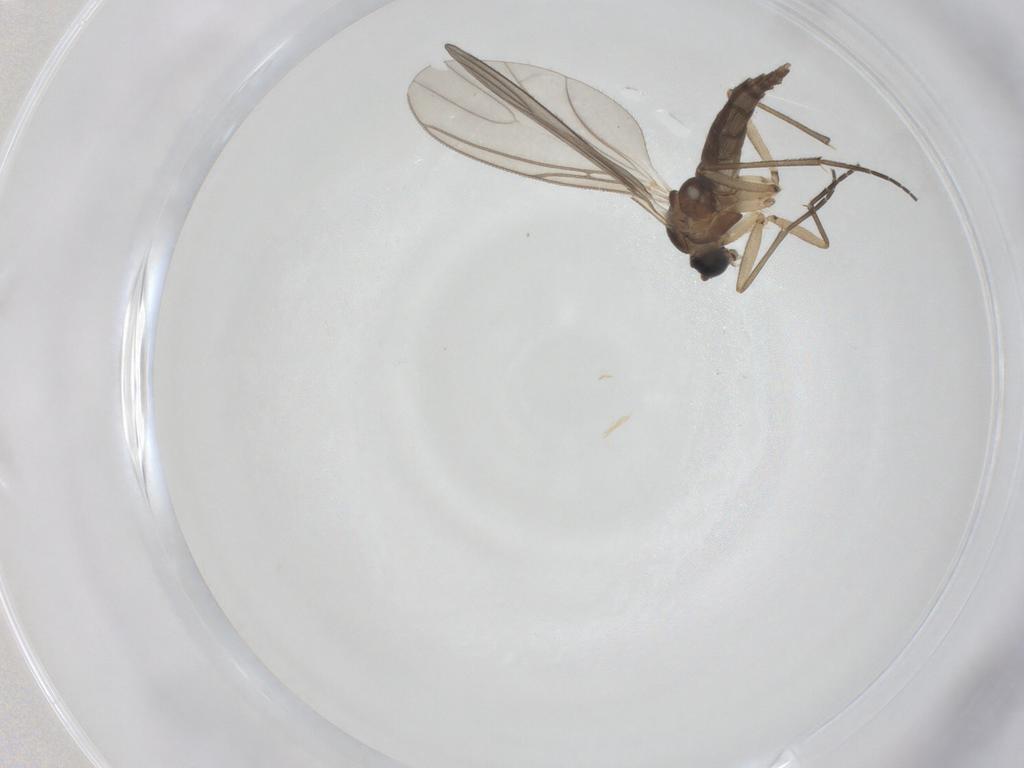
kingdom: Animalia
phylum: Arthropoda
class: Insecta
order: Diptera
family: Sciaridae
